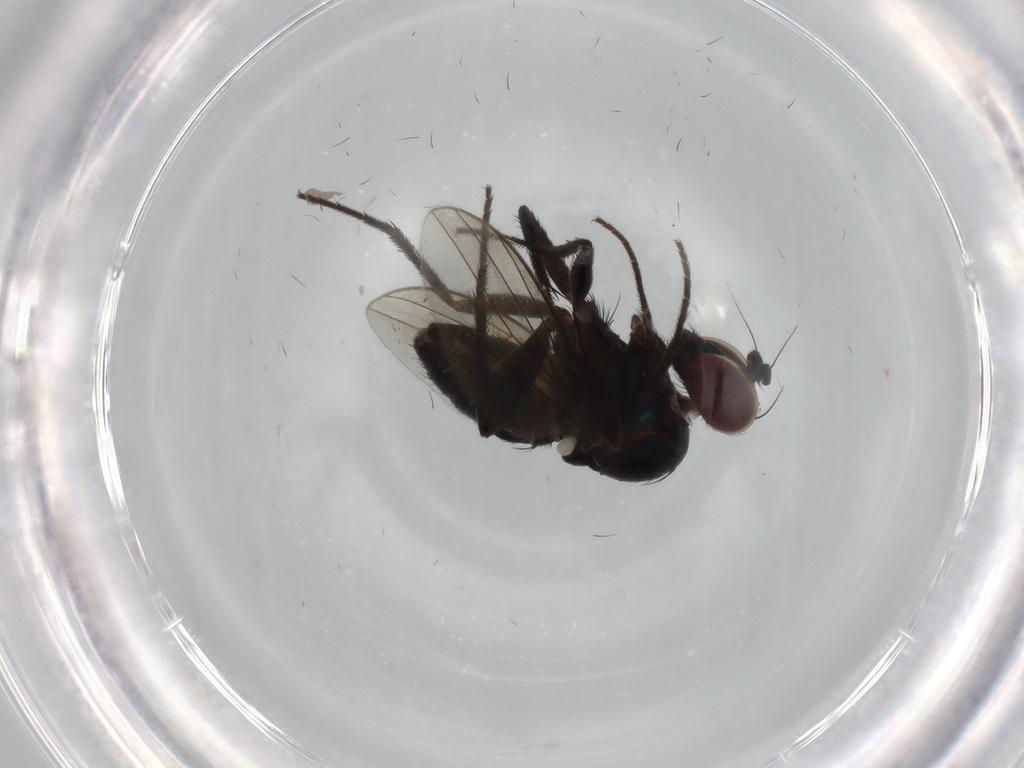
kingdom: Animalia
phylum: Arthropoda
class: Insecta
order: Diptera
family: Dolichopodidae
